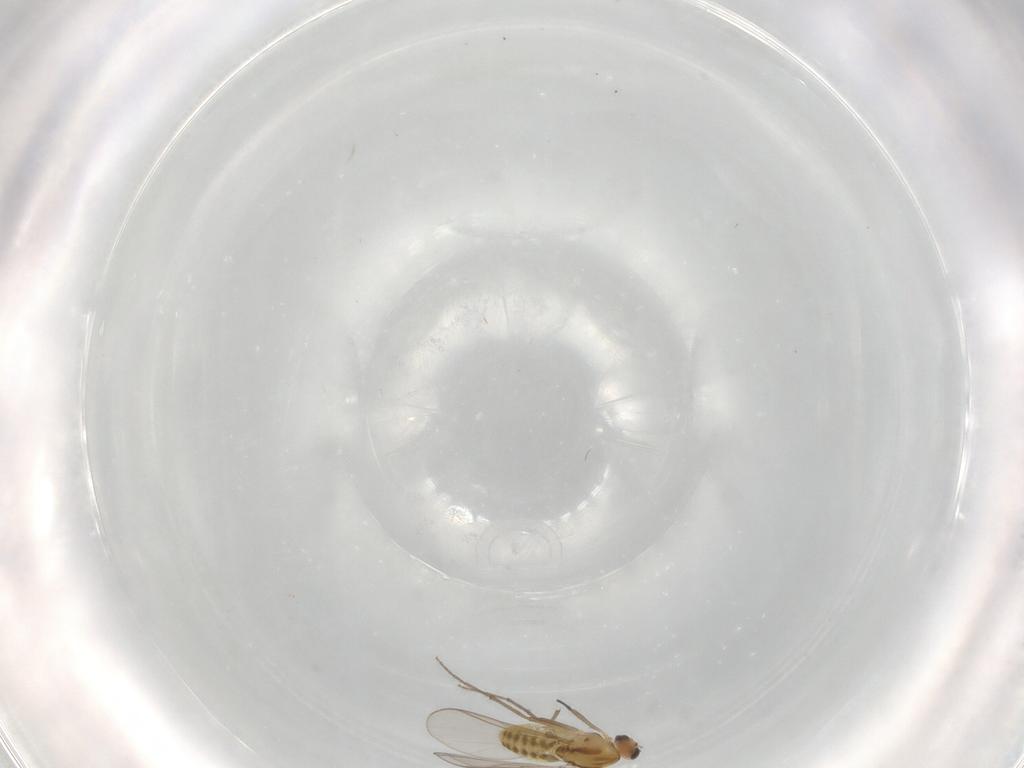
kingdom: Animalia
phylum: Arthropoda
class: Insecta
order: Diptera
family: Chironomidae
